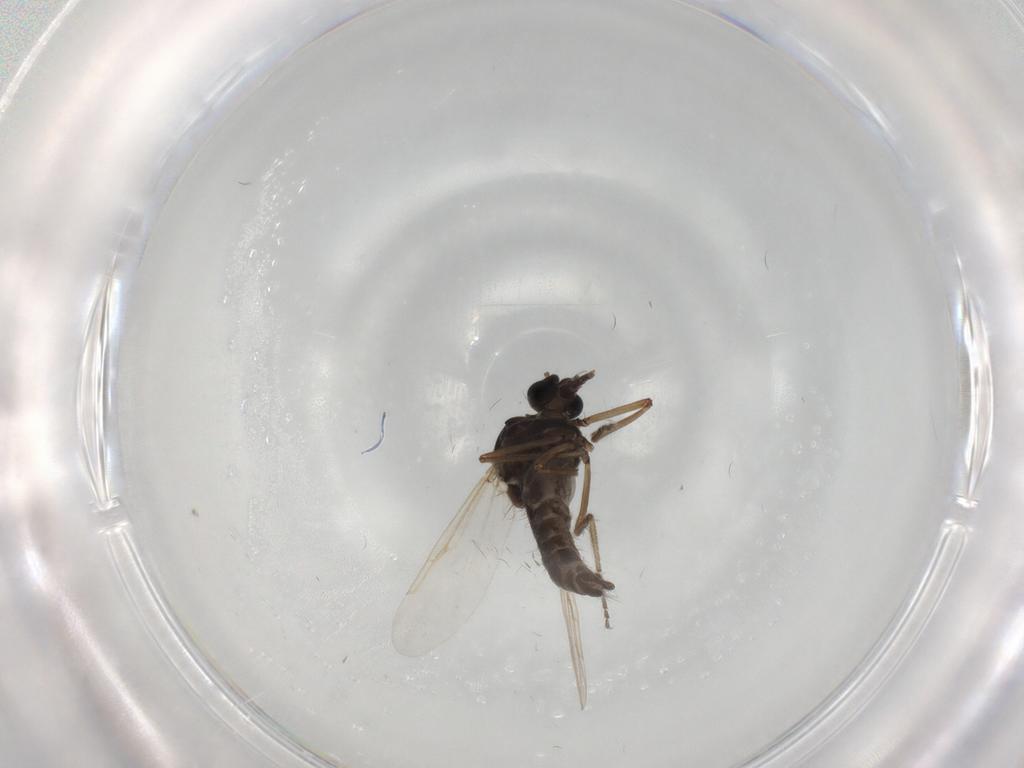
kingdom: Animalia
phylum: Arthropoda
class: Insecta
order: Diptera
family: Ceratopogonidae
